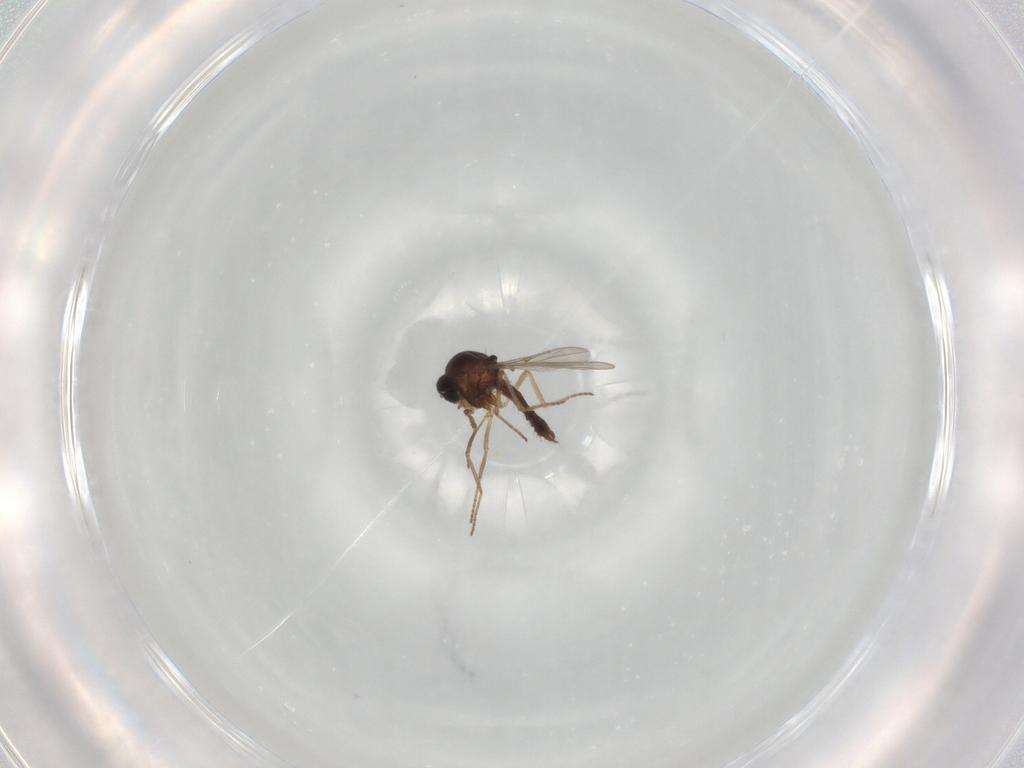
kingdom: Animalia
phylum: Arthropoda
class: Insecta
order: Diptera
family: Ceratopogonidae
